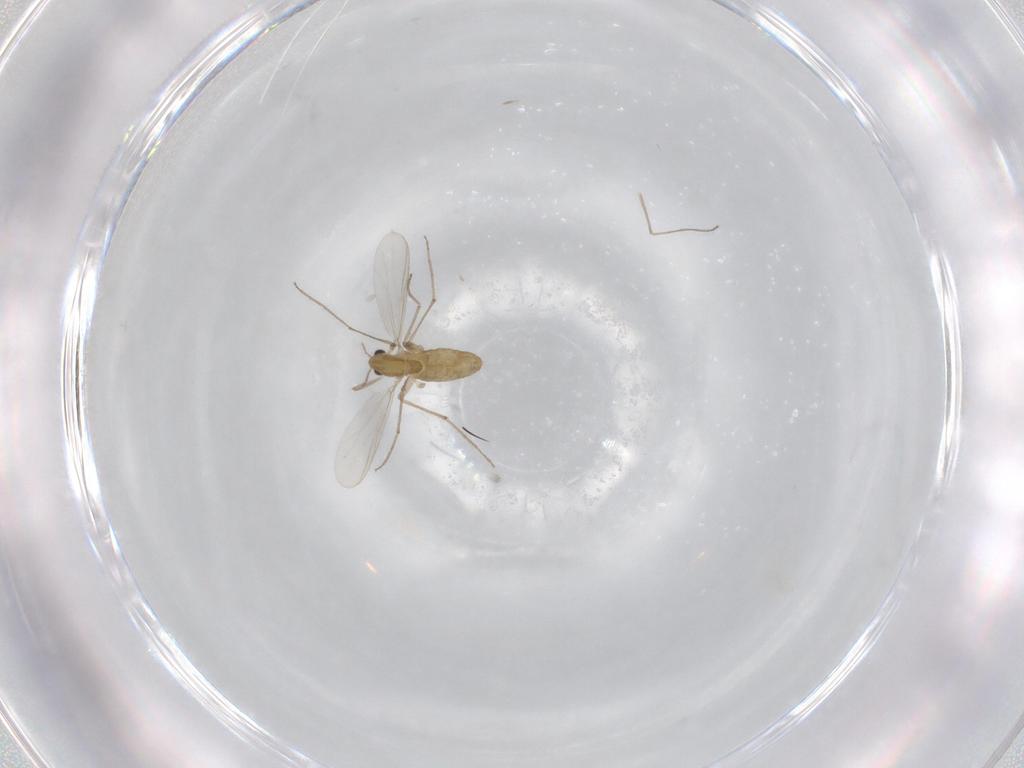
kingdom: Animalia
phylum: Arthropoda
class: Insecta
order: Diptera
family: Chironomidae
